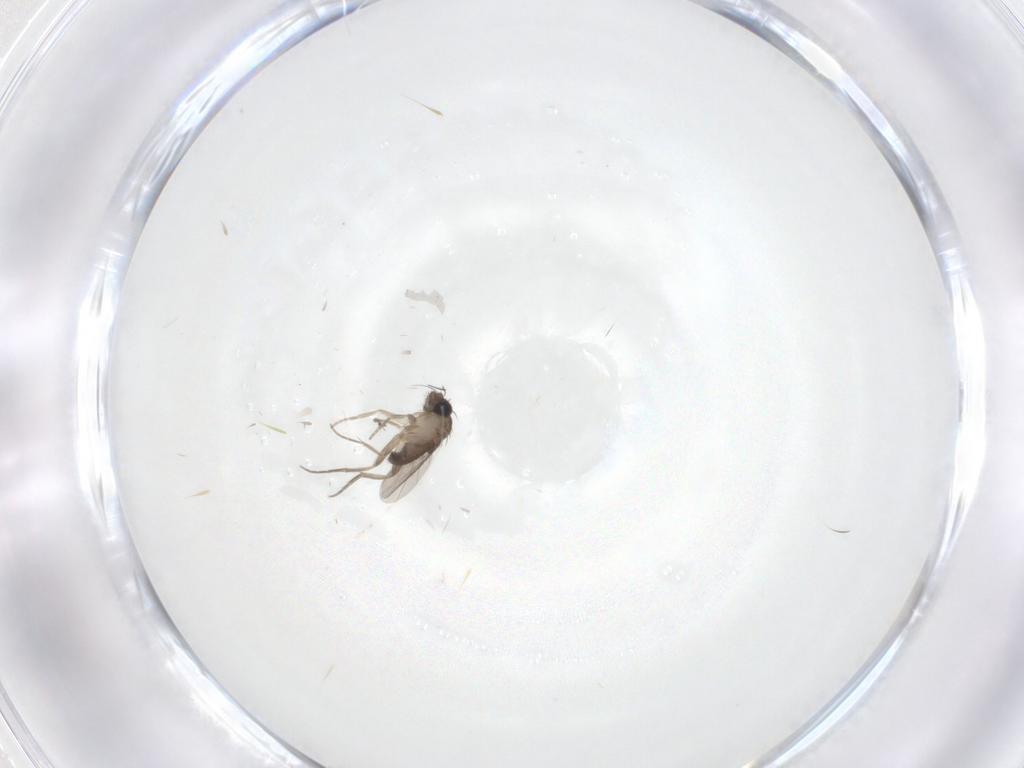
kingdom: Animalia
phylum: Arthropoda
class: Insecta
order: Diptera
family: Phoridae
